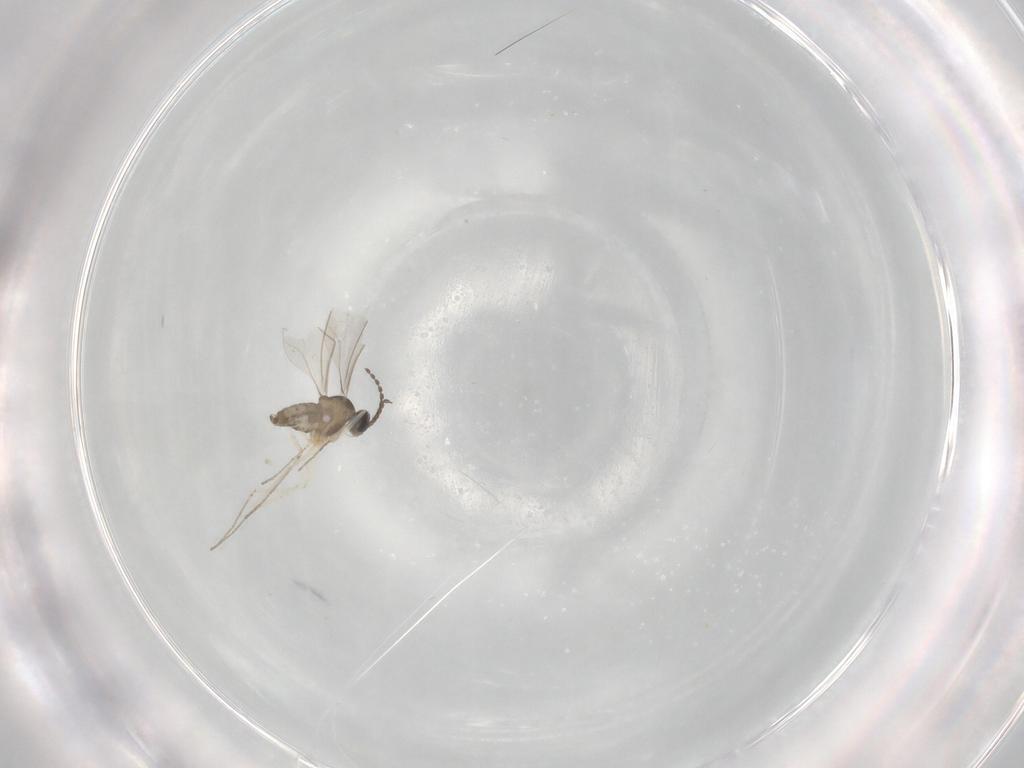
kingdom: Animalia
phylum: Arthropoda
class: Insecta
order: Diptera
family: Cecidomyiidae
